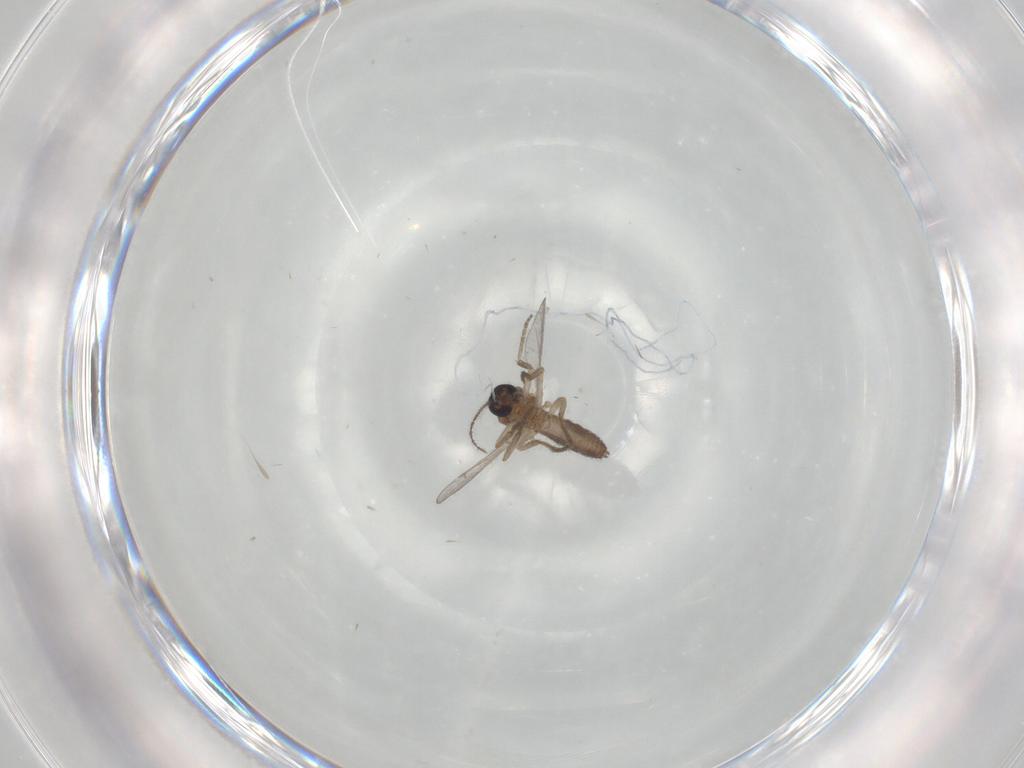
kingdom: Animalia
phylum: Arthropoda
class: Insecta
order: Diptera
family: Ceratopogonidae
